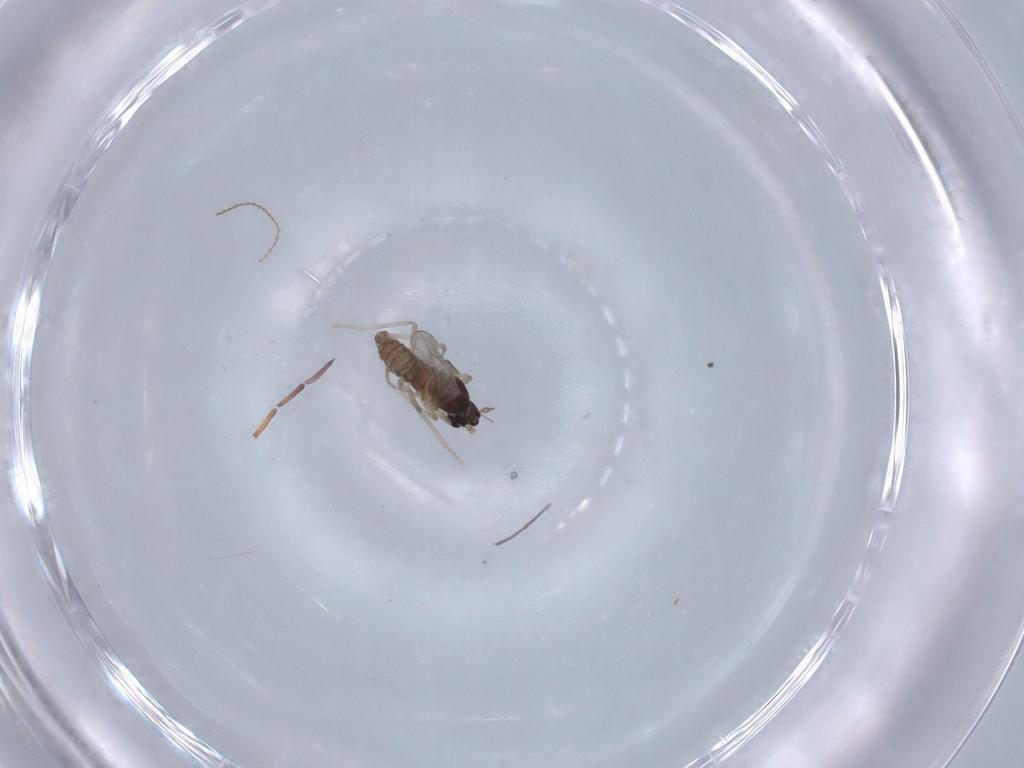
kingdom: Animalia
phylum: Arthropoda
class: Insecta
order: Diptera
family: Cecidomyiidae
